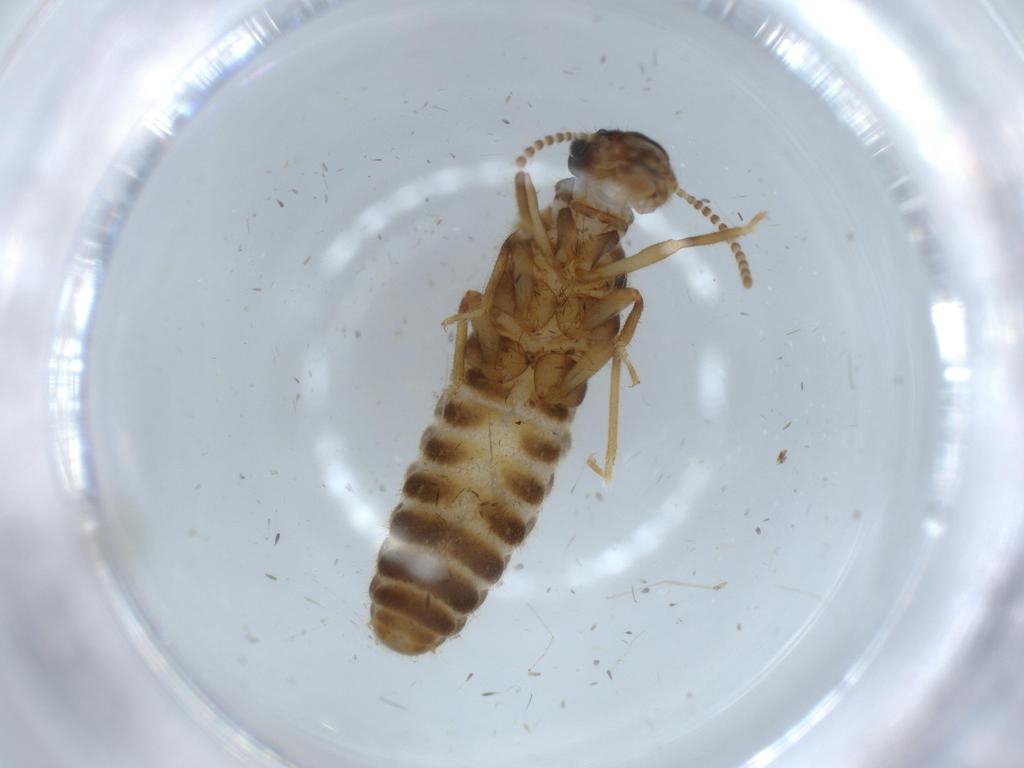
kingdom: Animalia
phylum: Arthropoda
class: Insecta
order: Blattodea
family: Termitidae
